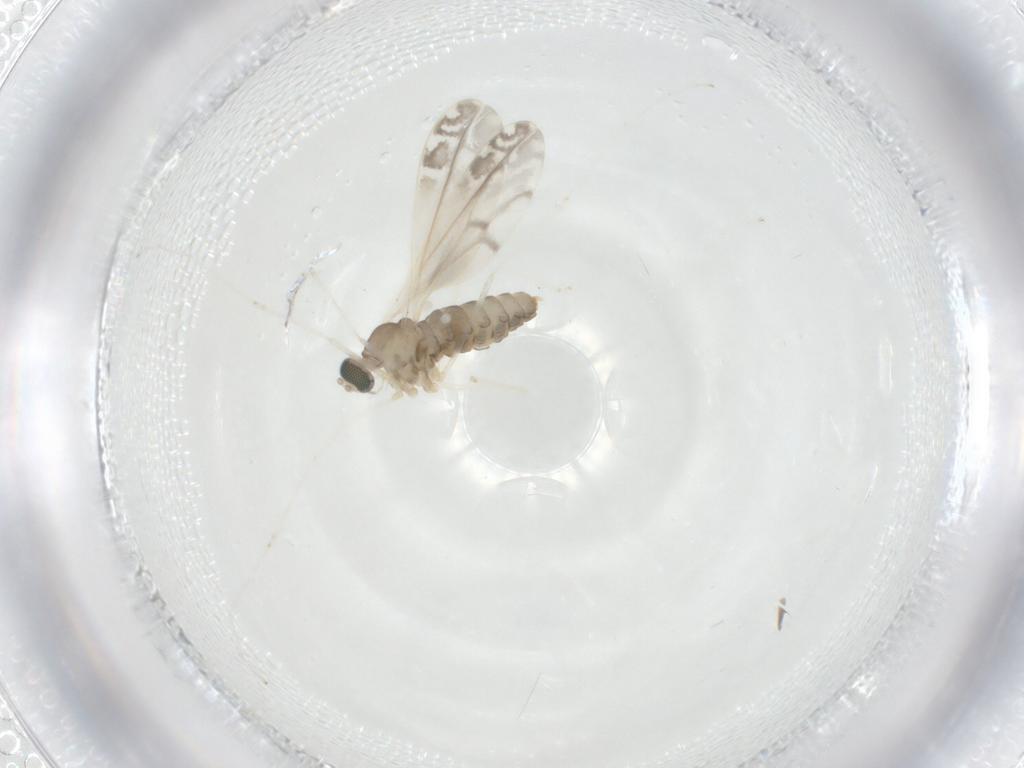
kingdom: Animalia
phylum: Arthropoda
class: Insecta
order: Diptera
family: Cecidomyiidae
